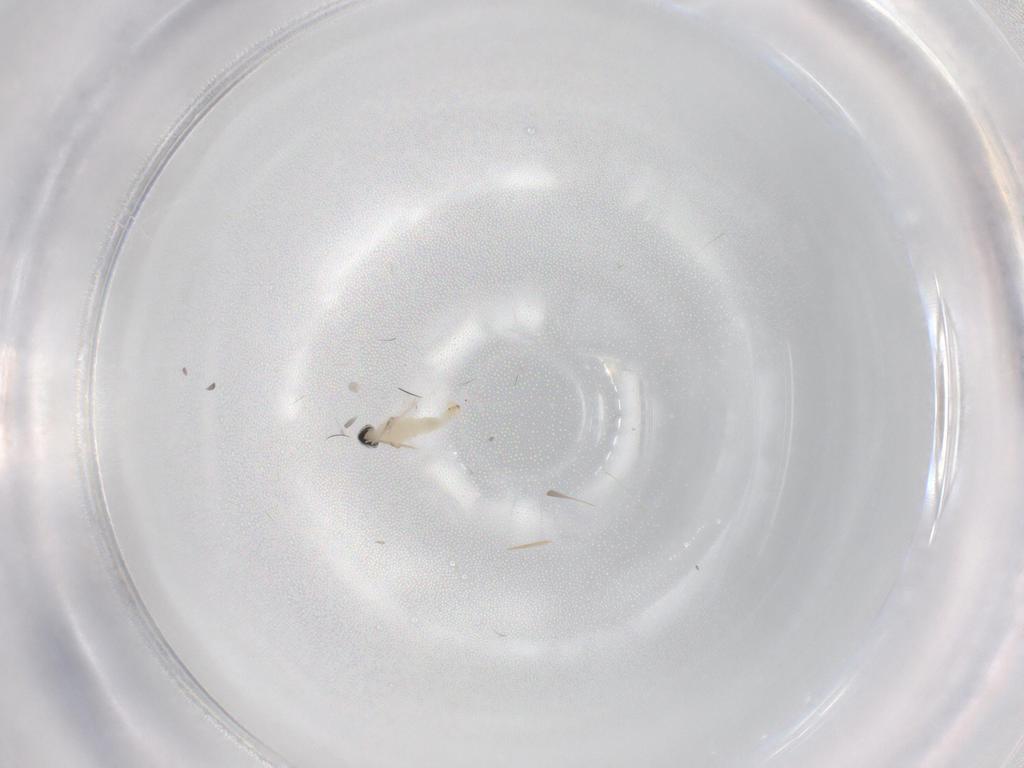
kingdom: Animalia
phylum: Arthropoda
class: Insecta
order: Diptera
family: Cecidomyiidae
